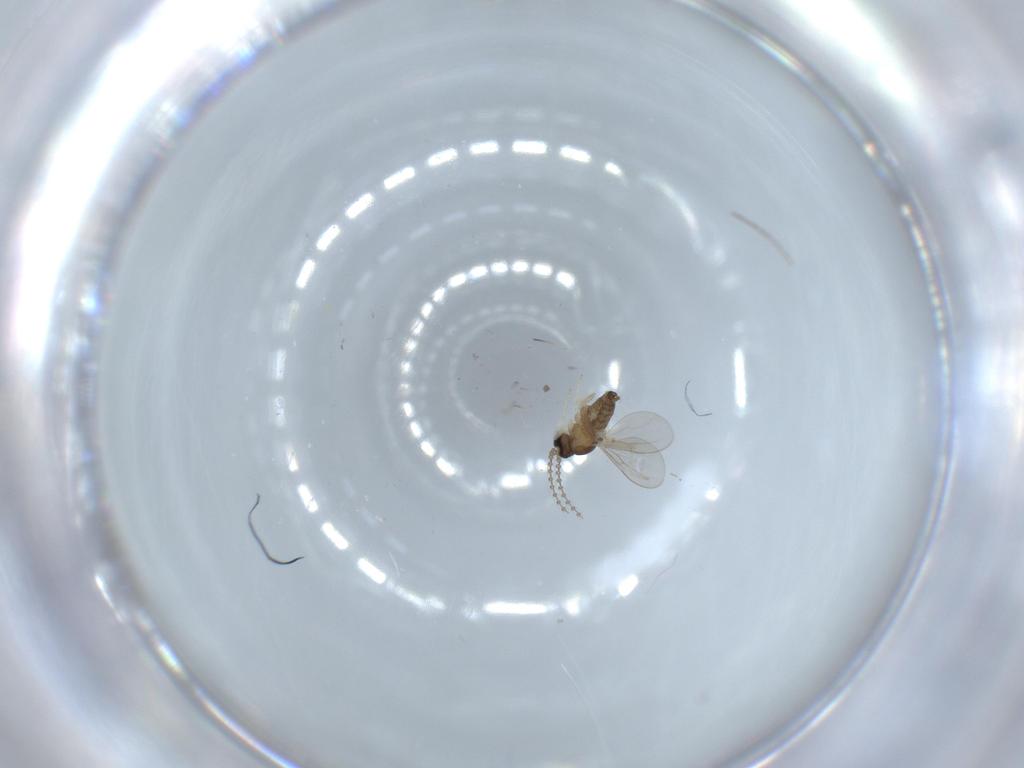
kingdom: Animalia
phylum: Arthropoda
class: Insecta
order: Diptera
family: Chironomidae
